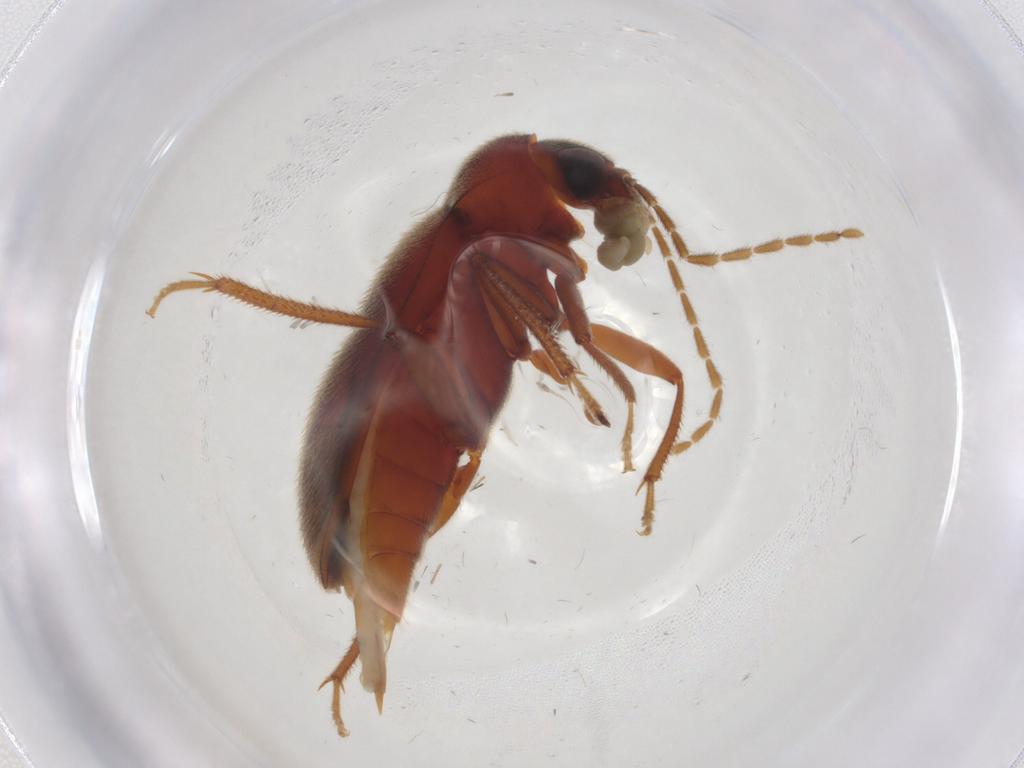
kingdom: Animalia
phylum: Arthropoda
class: Insecta
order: Coleoptera
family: Ptilodactylidae
